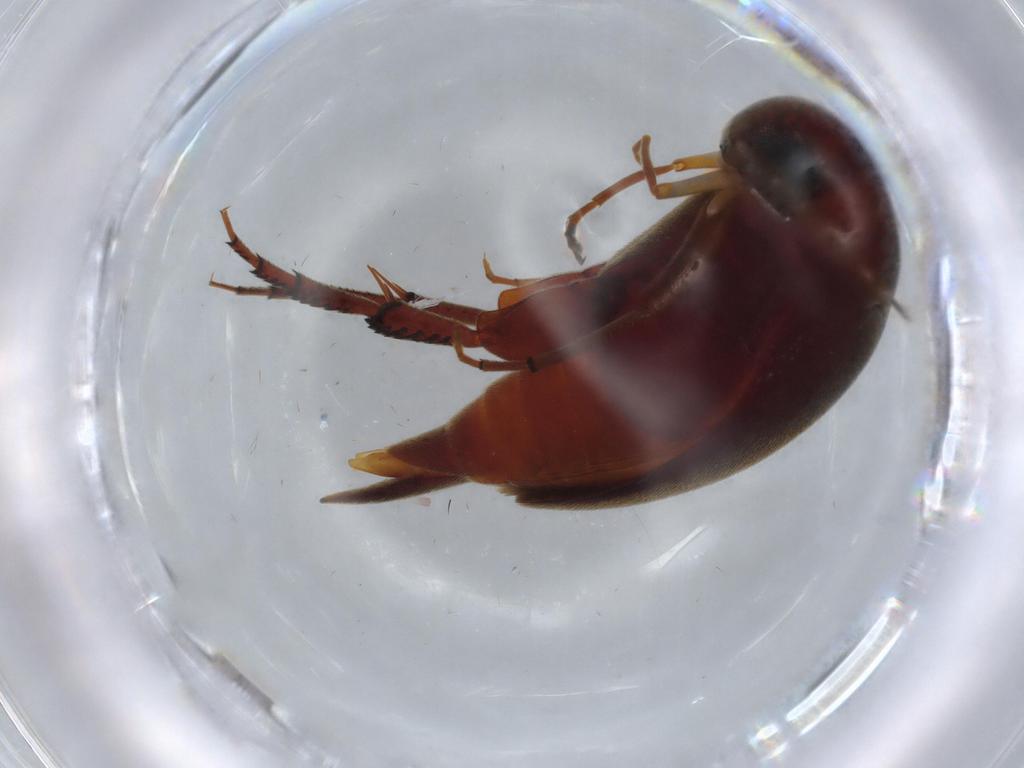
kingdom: Animalia
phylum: Arthropoda
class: Insecta
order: Coleoptera
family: Mordellidae
